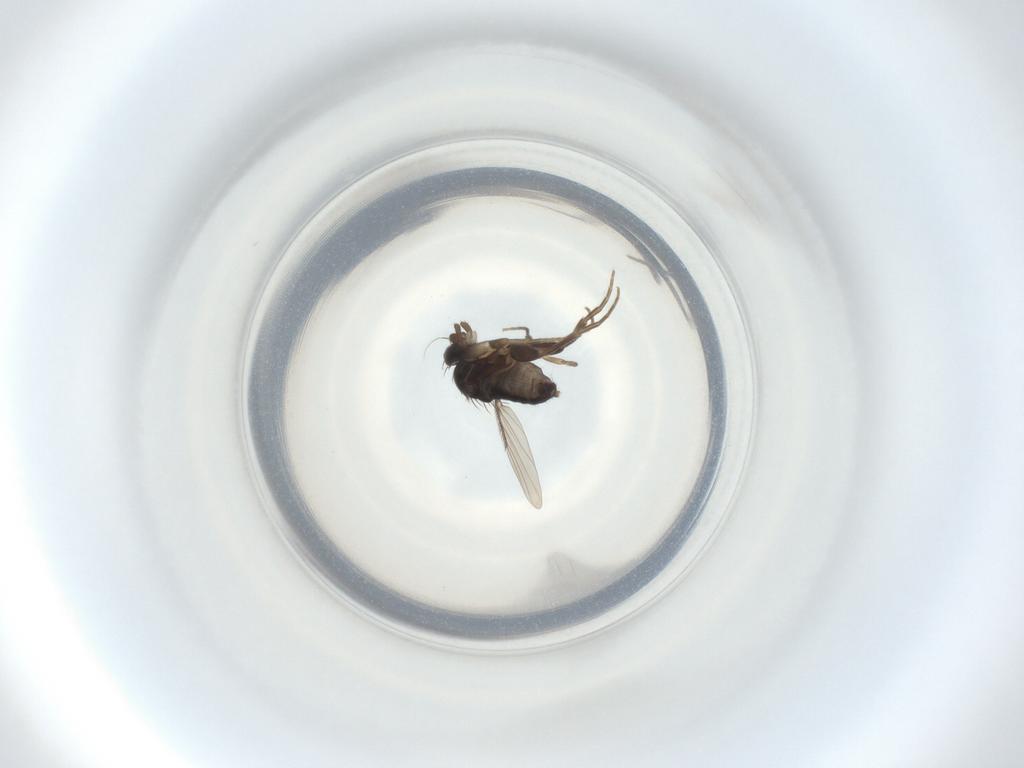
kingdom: Animalia
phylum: Arthropoda
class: Insecta
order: Diptera
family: Phoridae
